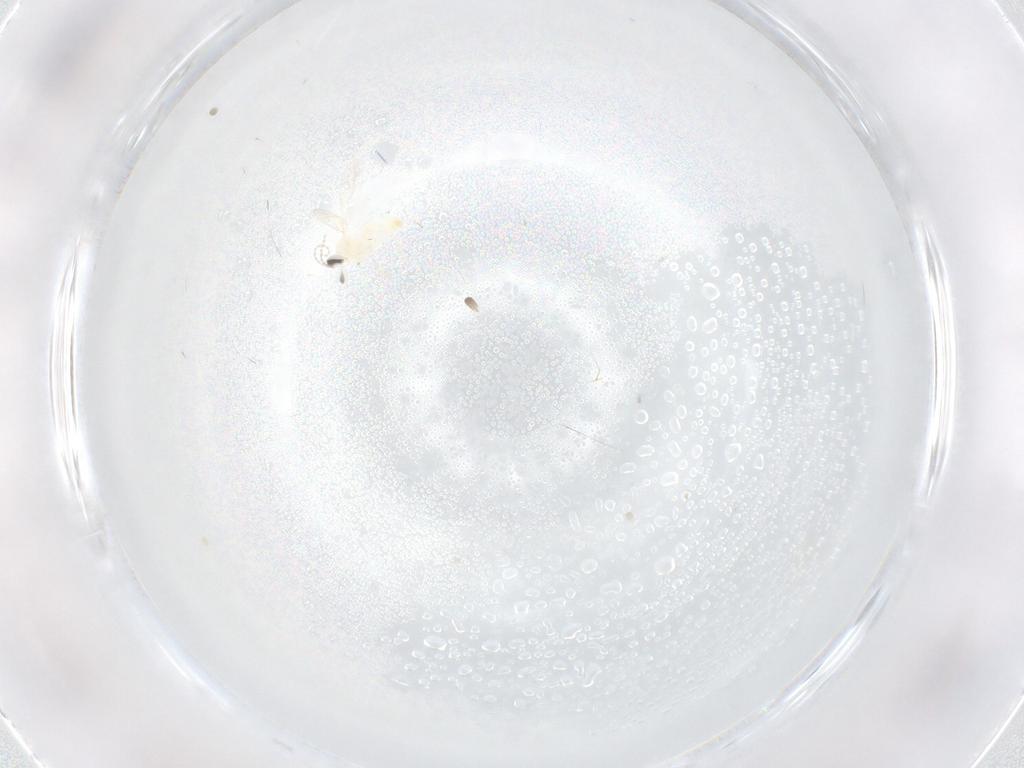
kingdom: Animalia
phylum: Arthropoda
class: Insecta
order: Diptera
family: Cecidomyiidae
